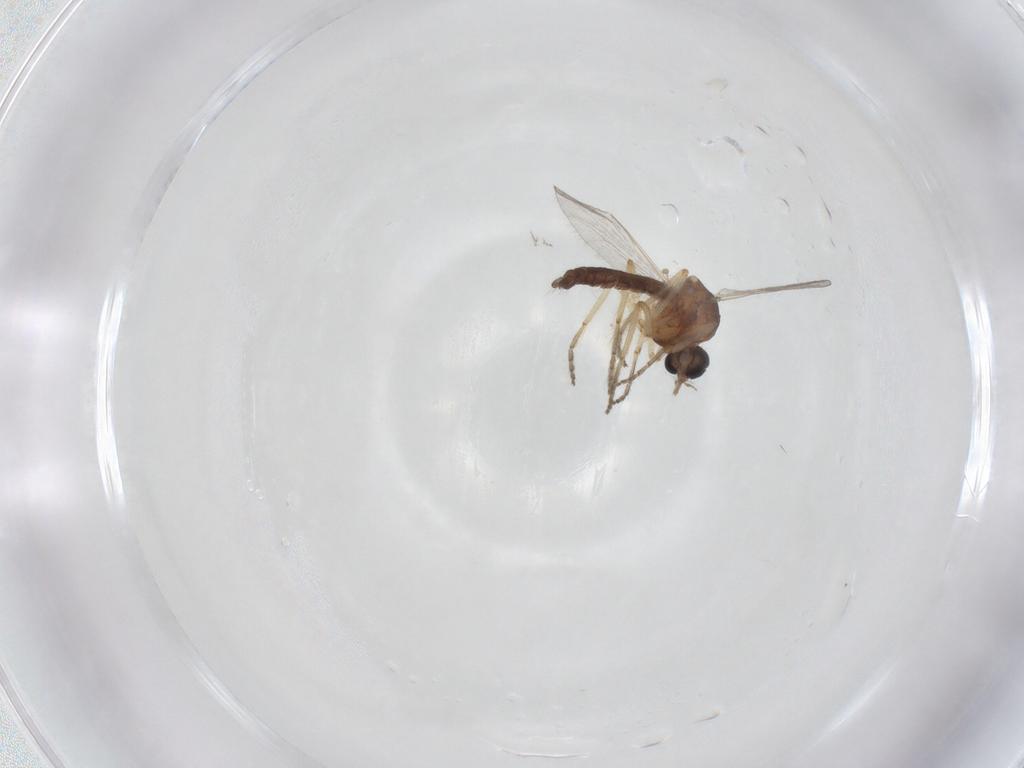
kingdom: Animalia
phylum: Arthropoda
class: Insecta
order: Diptera
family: Ceratopogonidae
